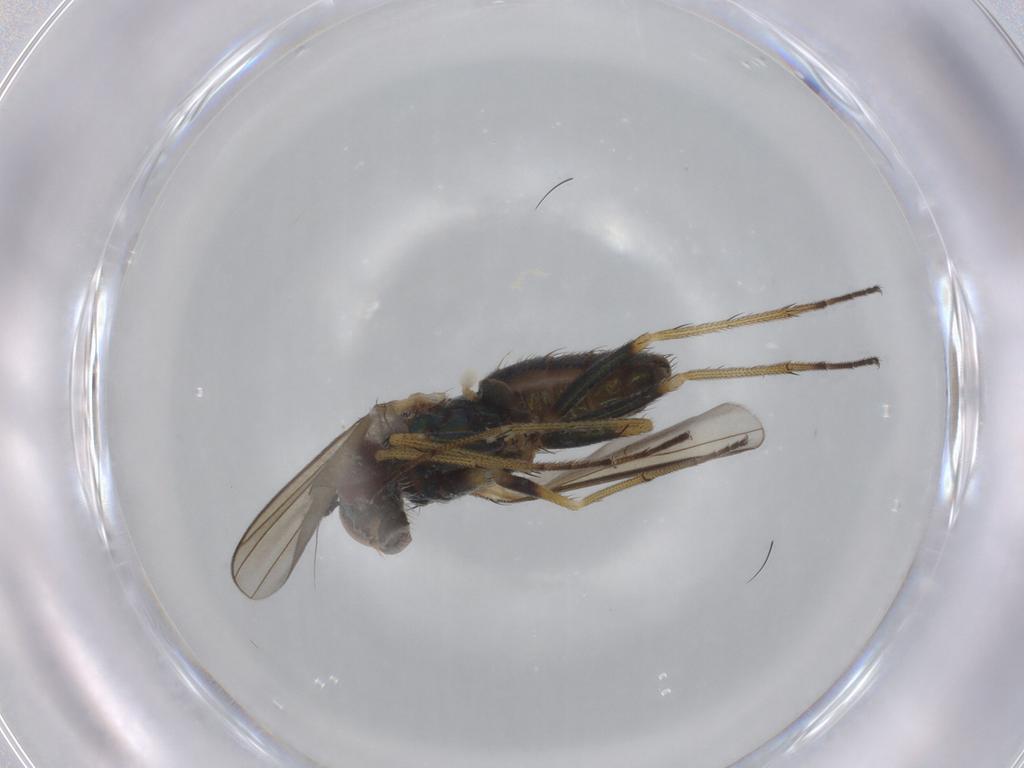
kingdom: Animalia
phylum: Arthropoda
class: Insecta
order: Diptera
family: Dolichopodidae
